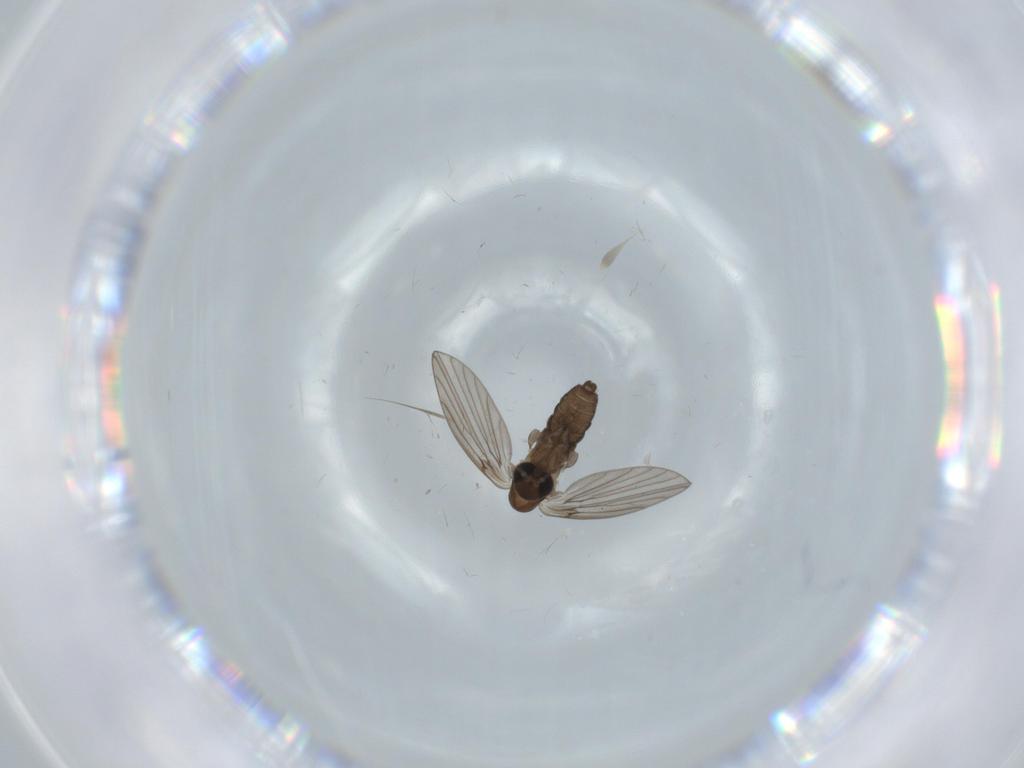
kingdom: Animalia
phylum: Arthropoda
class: Insecta
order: Diptera
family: Psychodidae
